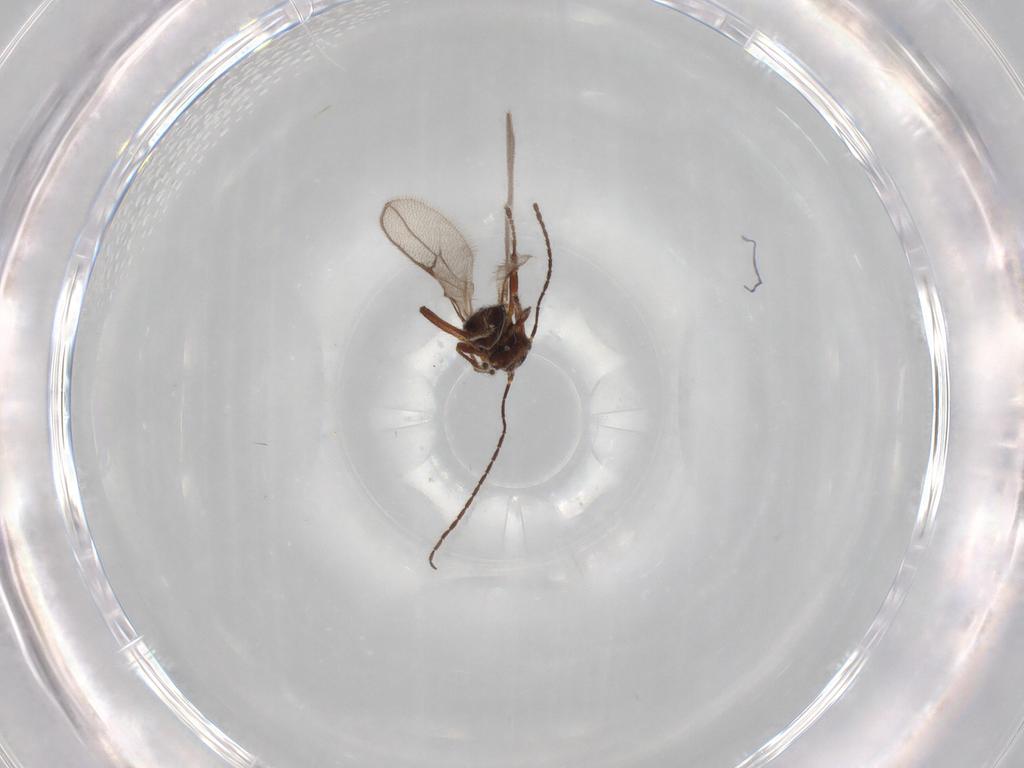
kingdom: Animalia
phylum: Arthropoda
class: Insecta
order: Hymenoptera
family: Braconidae
